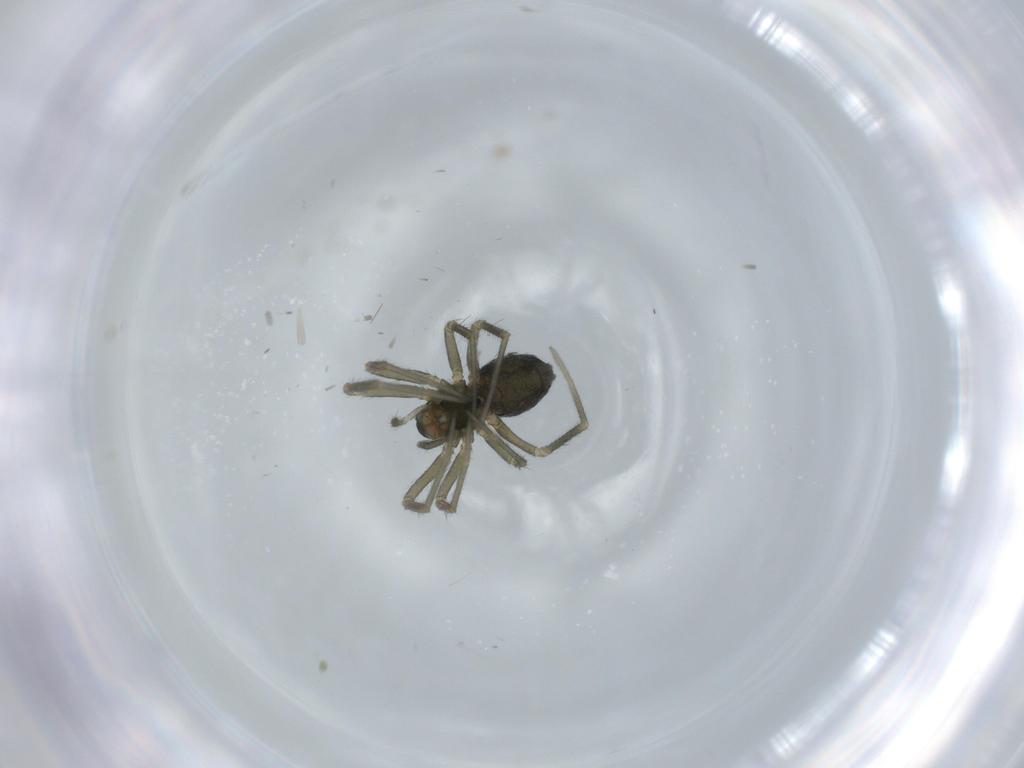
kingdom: Animalia
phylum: Arthropoda
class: Arachnida
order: Araneae
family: Linyphiidae
